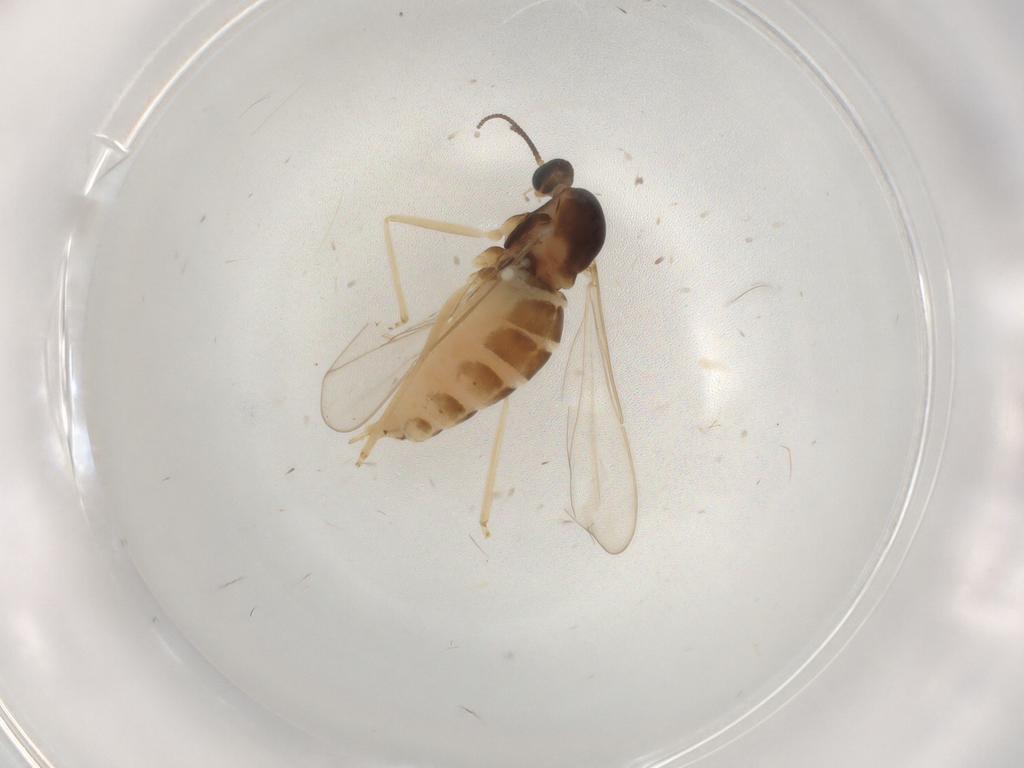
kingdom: Animalia
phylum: Arthropoda
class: Insecta
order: Diptera
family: Cecidomyiidae
